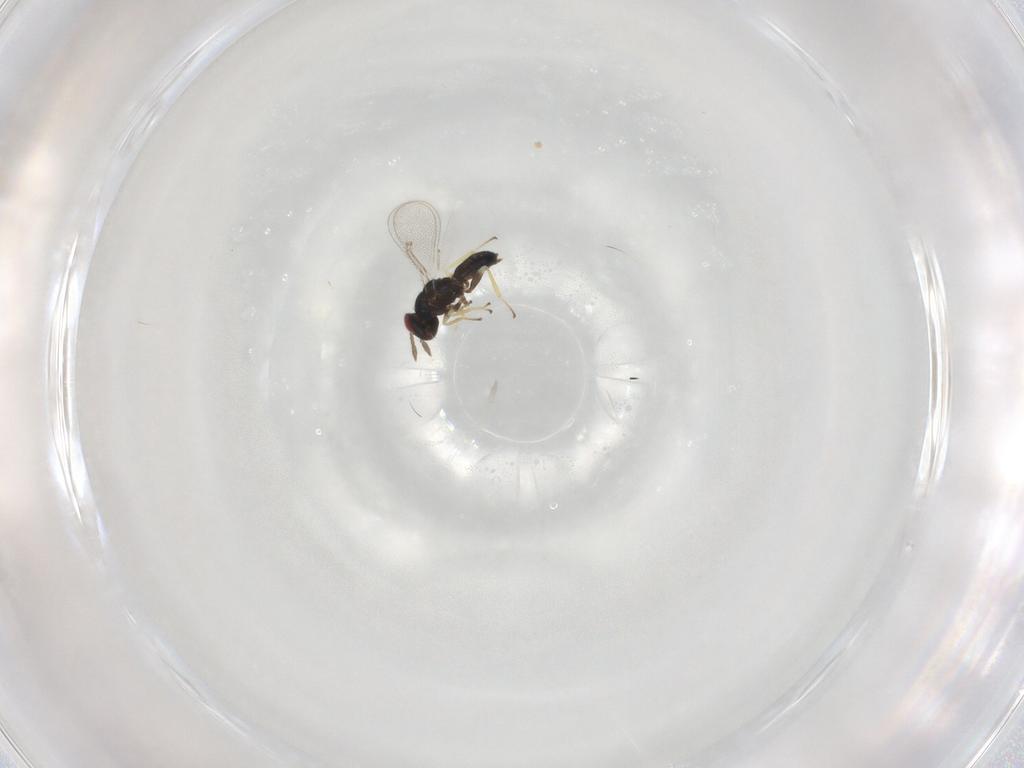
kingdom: Animalia
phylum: Arthropoda
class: Insecta
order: Hymenoptera
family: Eulophidae
